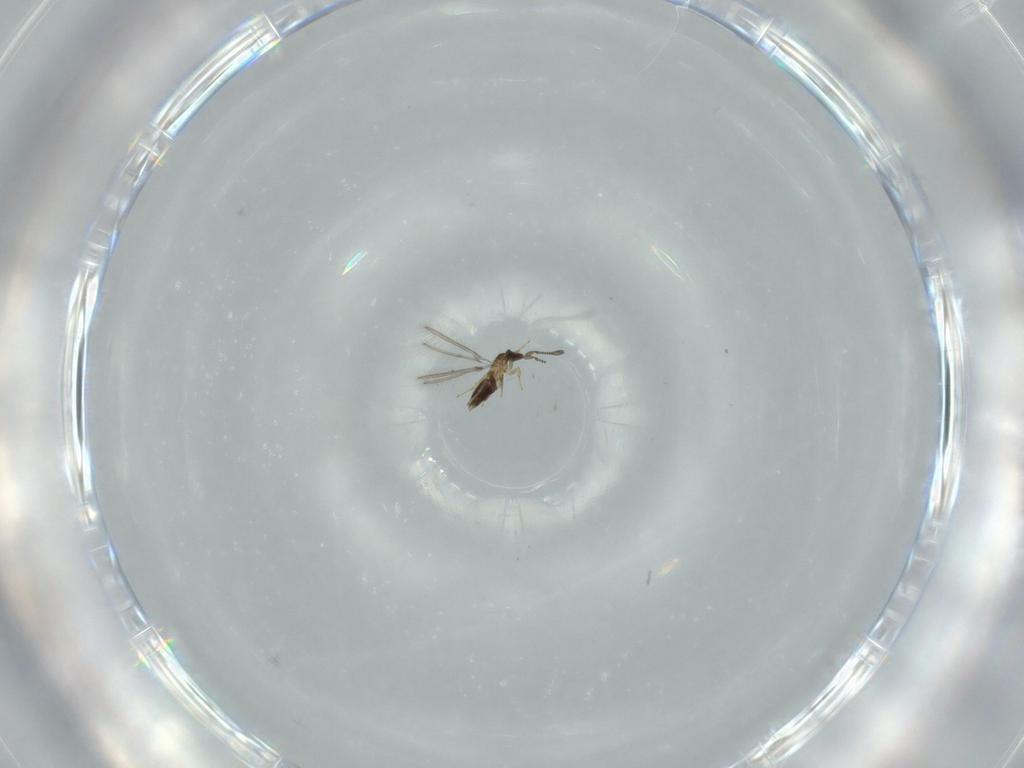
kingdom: Animalia
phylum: Arthropoda
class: Insecta
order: Hymenoptera
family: Mymaridae
